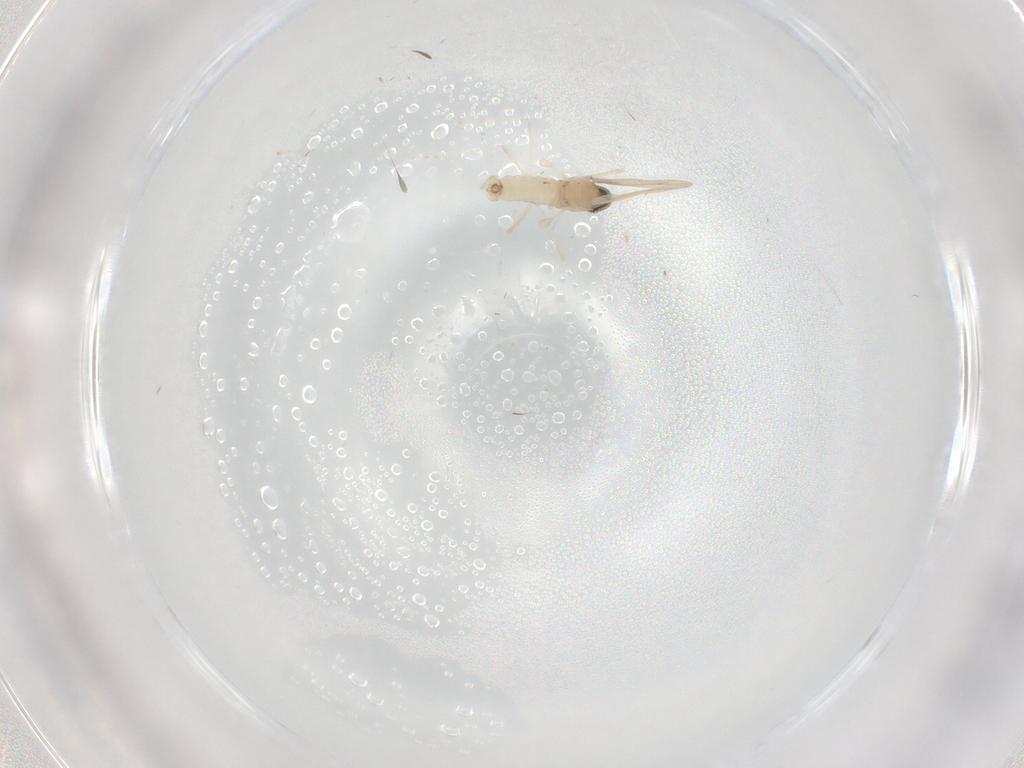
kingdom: Animalia
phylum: Arthropoda
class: Insecta
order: Diptera
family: Cecidomyiidae
